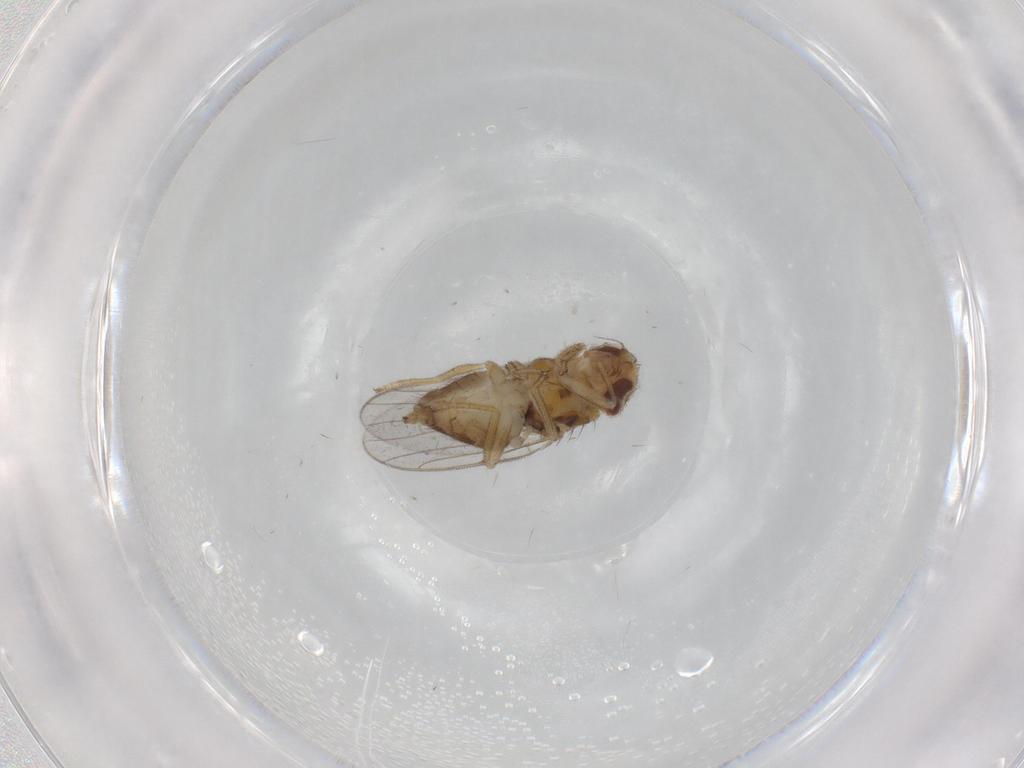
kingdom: Animalia
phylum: Arthropoda
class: Insecta
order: Diptera
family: Chloropidae
